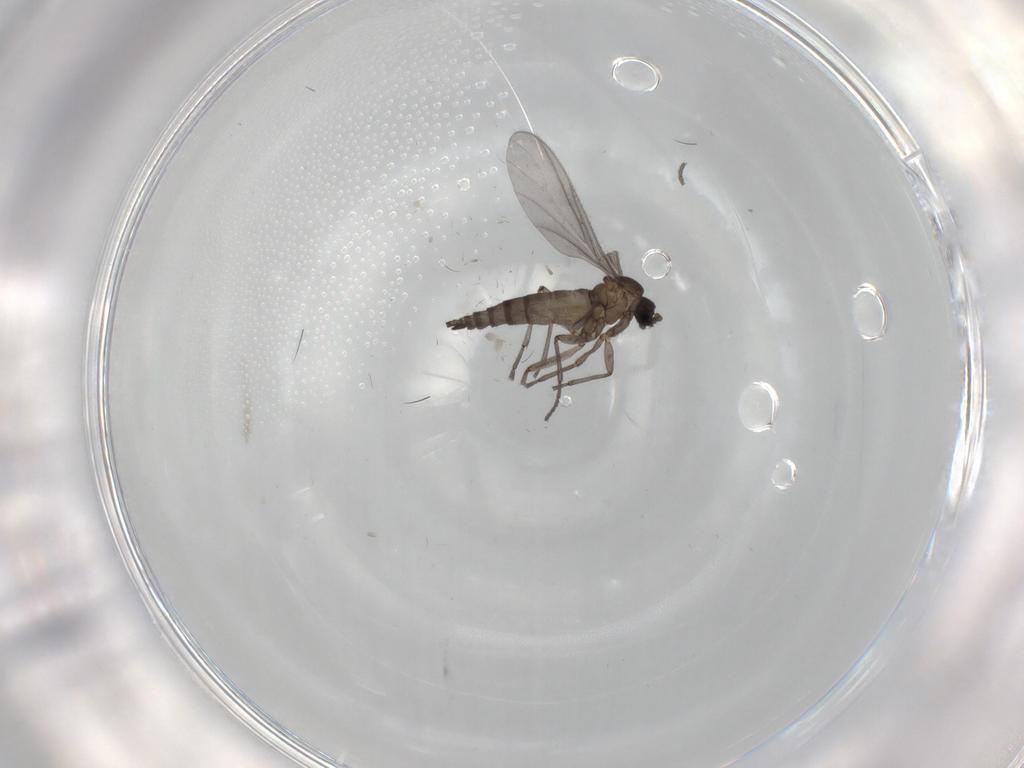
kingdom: Animalia
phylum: Arthropoda
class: Insecta
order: Diptera
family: Sciaridae
